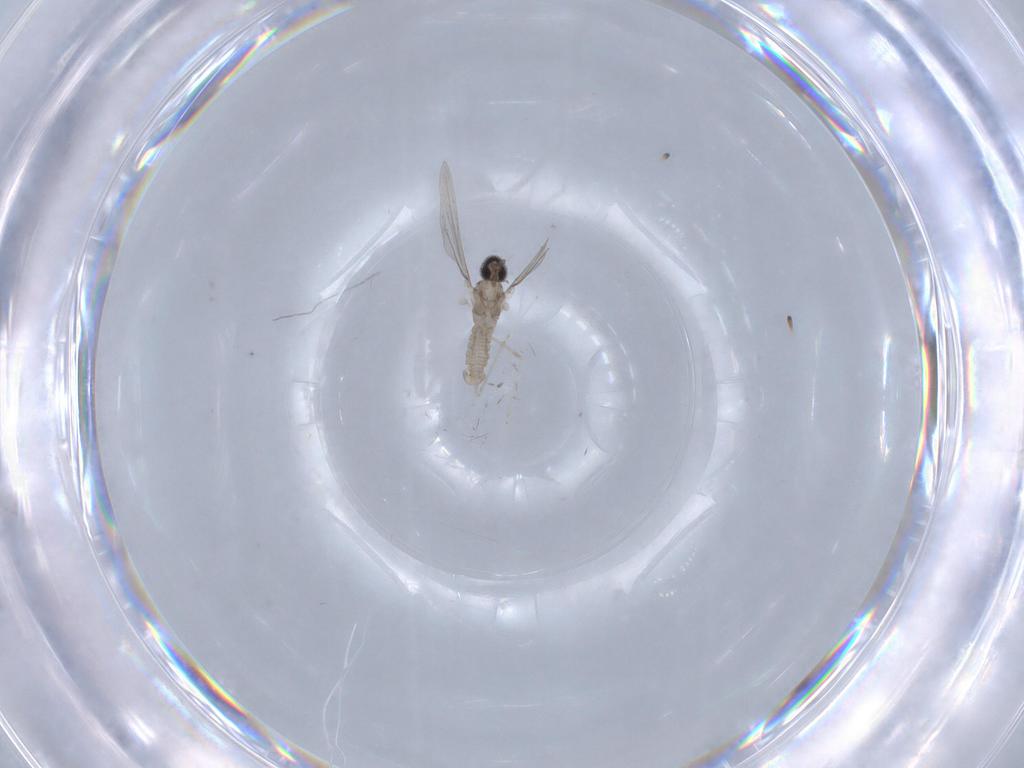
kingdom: Animalia
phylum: Arthropoda
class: Insecta
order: Diptera
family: Cecidomyiidae
